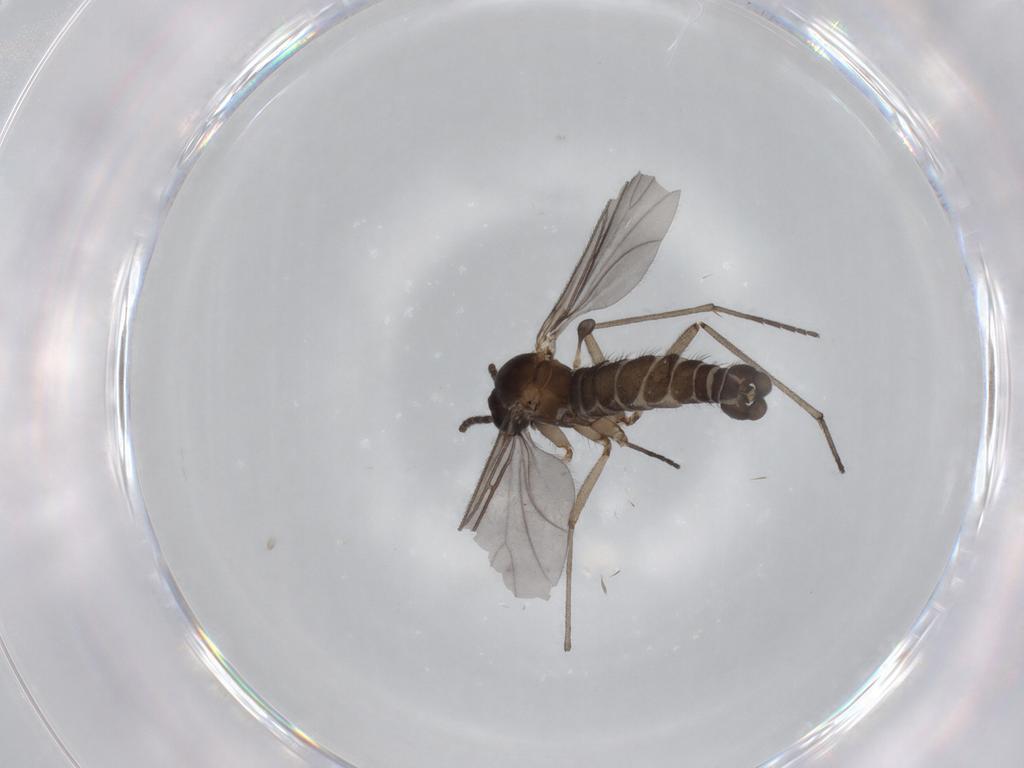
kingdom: Animalia
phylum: Arthropoda
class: Insecta
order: Diptera
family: Sciaridae
